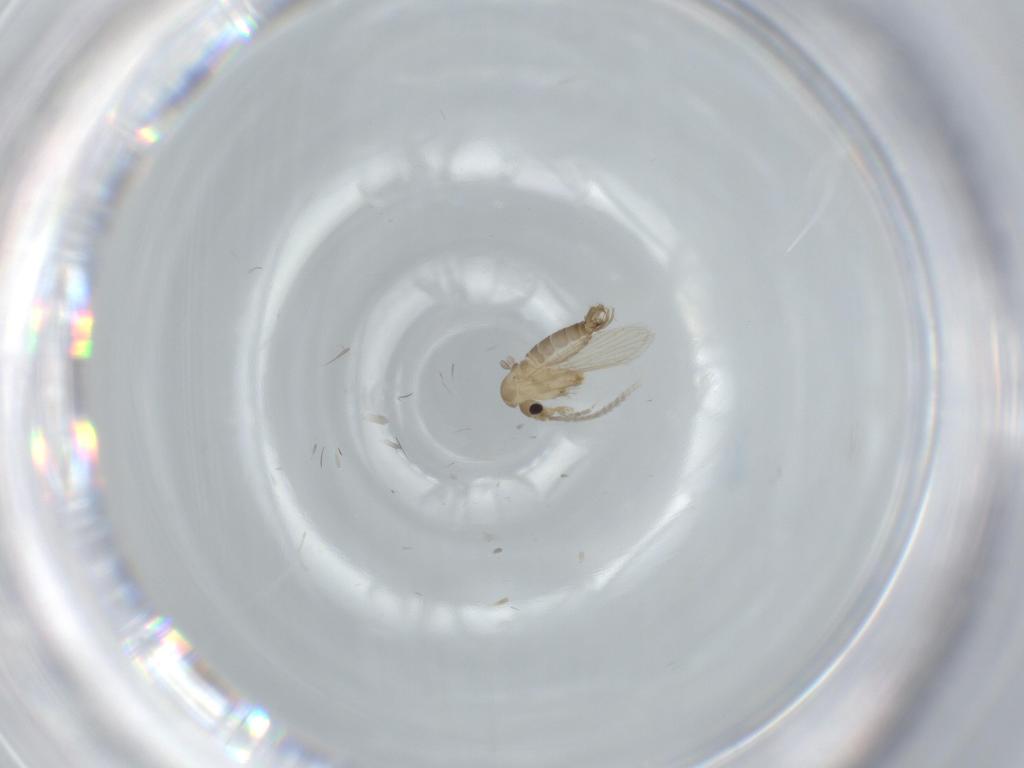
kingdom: Animalia
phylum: Arthropoda
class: Insecta
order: Diptera
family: Psychodidae
